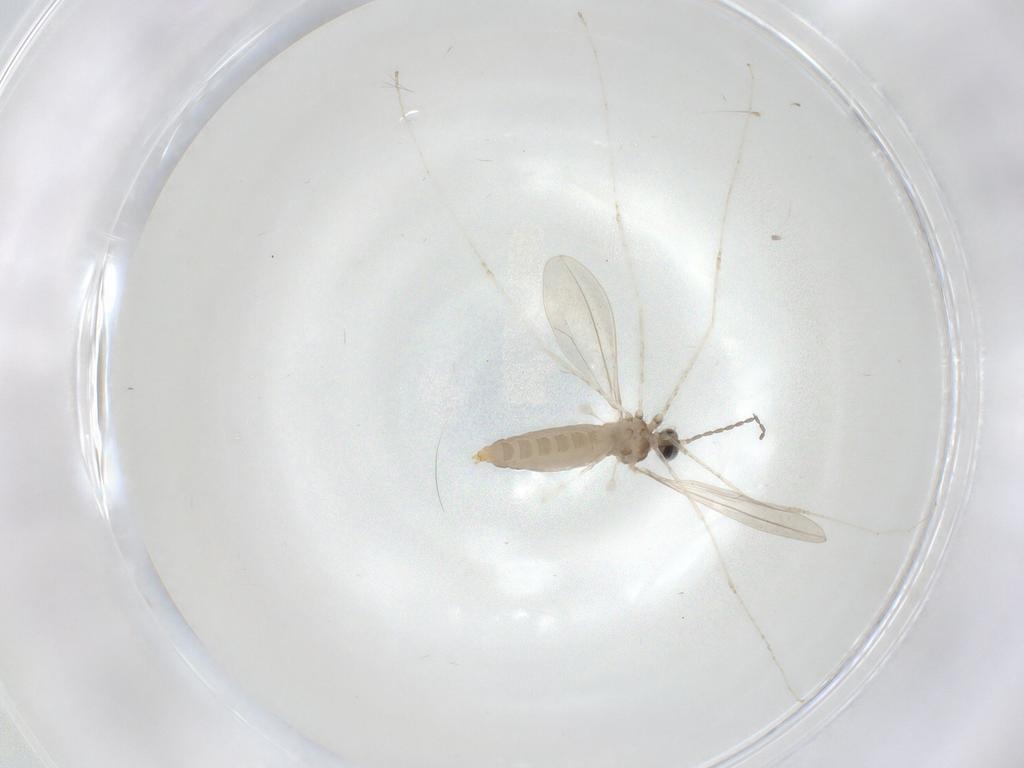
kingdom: Animalia
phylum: Arthropoda
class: Insecta
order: Diptera
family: Cecidomyiidae
